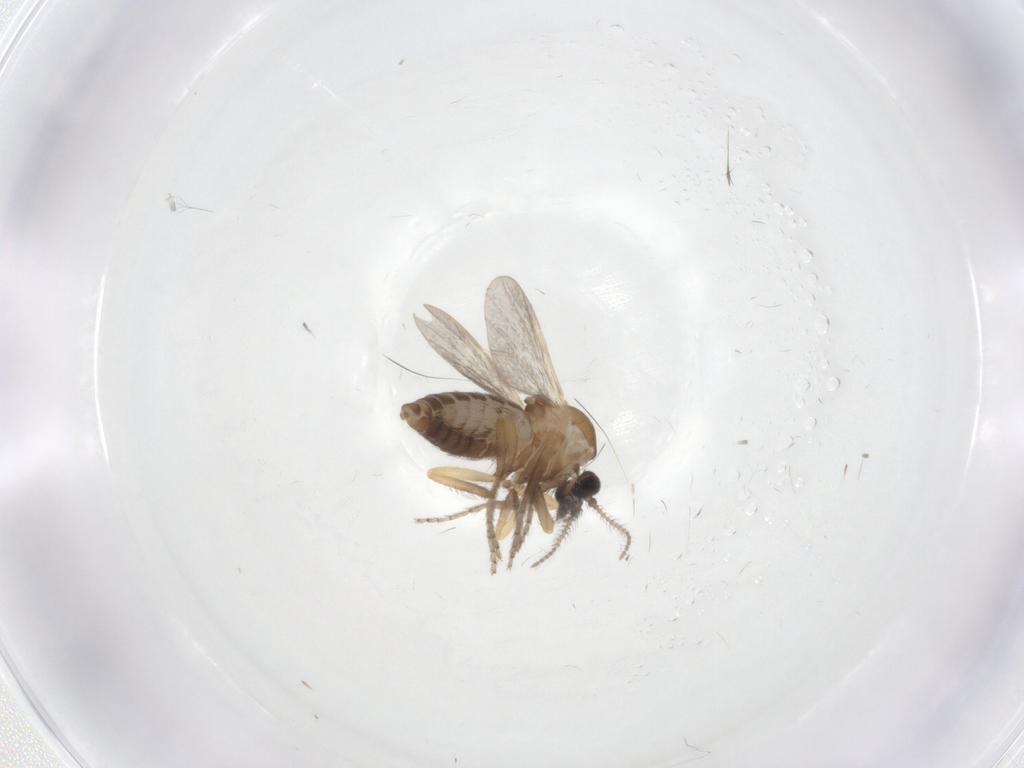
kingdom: Animalia
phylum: Arthropoda
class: Insecta
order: Diptera
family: Ceratopogonidae
